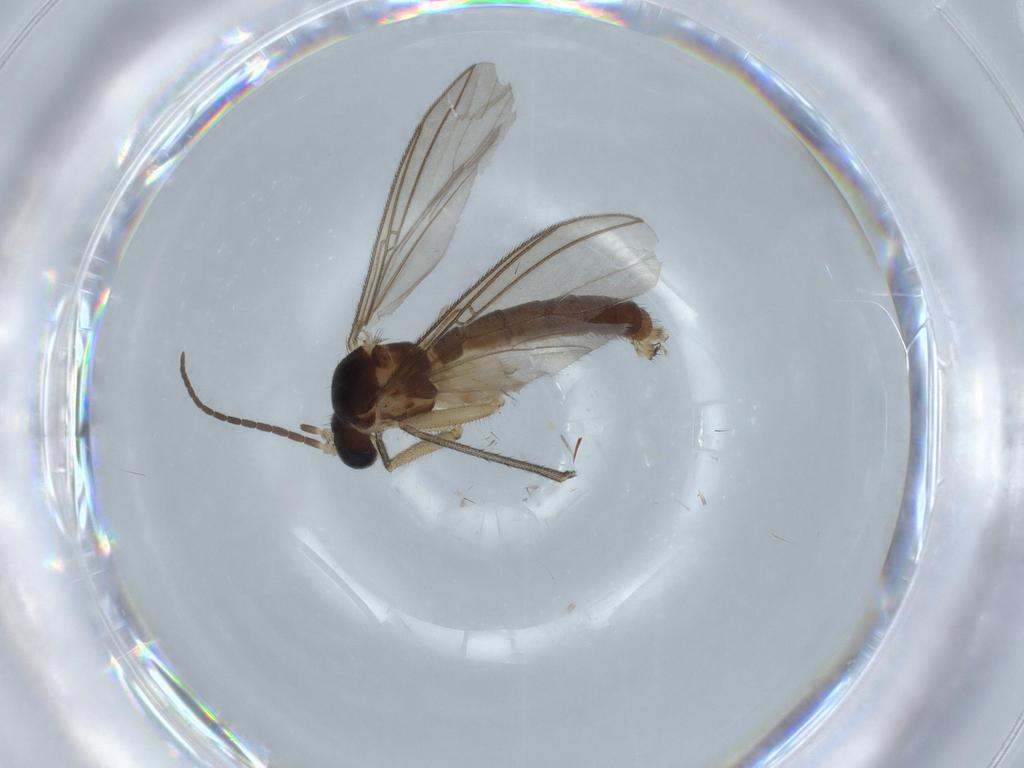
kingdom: Animalia
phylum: Arthropoda
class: Insecta
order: Diptera
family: Mycetophilidae
